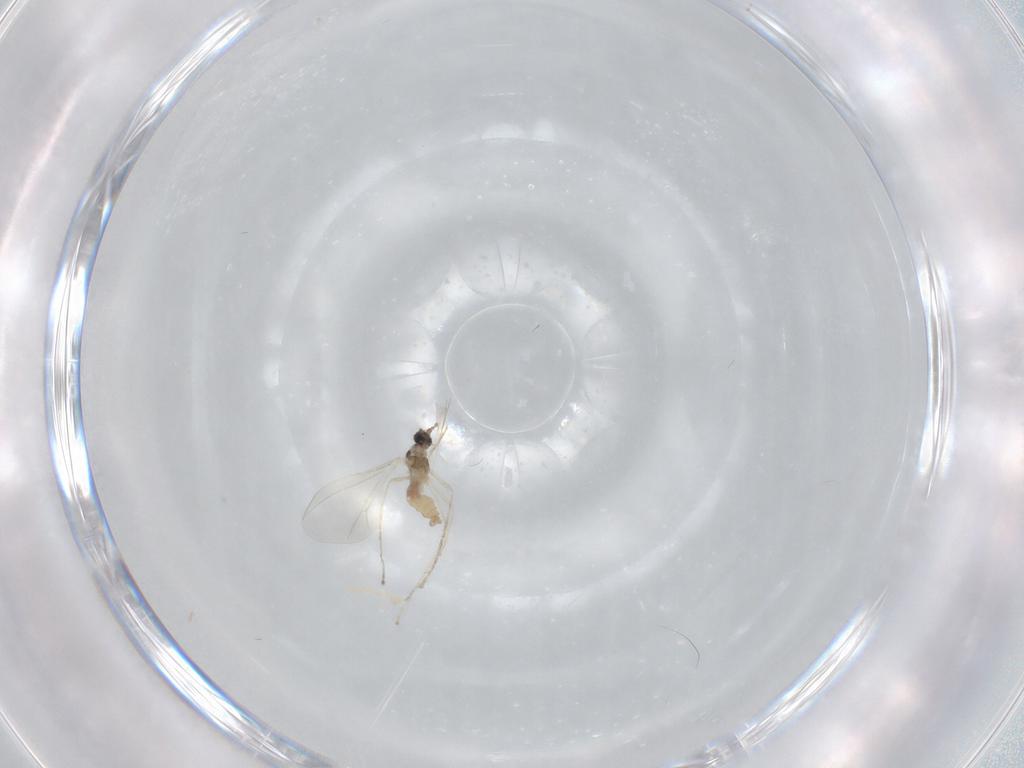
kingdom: Animalia
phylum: Arthropoda
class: Insecta
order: Diptera
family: Cecidomyiidae
